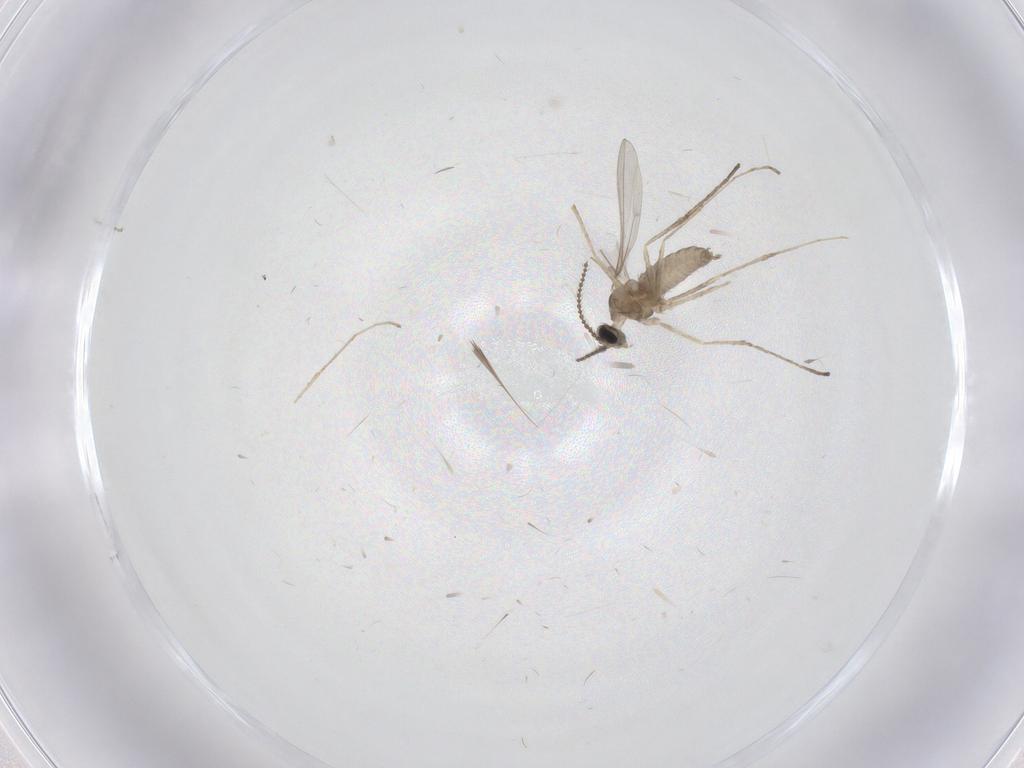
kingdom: Animalia
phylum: Arthropoda
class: Insecta
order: Diptera
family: Cecidomyiidae
